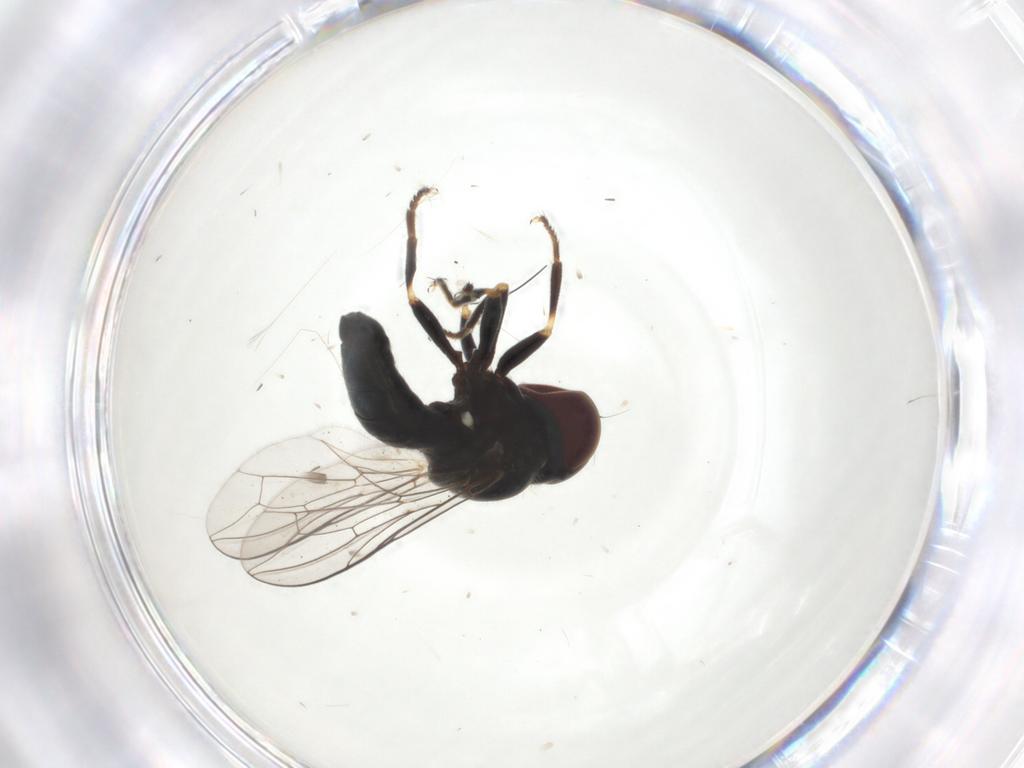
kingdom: Animalia
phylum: Arthropoda
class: Insecta
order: Diptera
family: Pipunculidae
